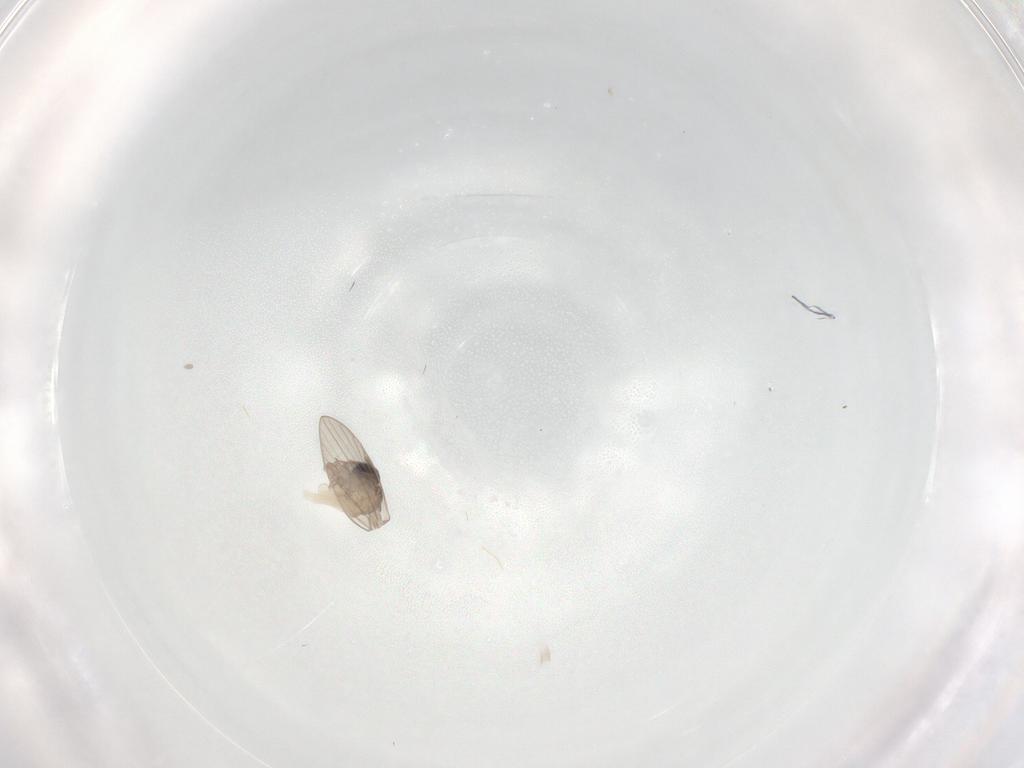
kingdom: Animalia
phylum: Arthropoda
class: Insecta
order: Diptera
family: Psychodidae
